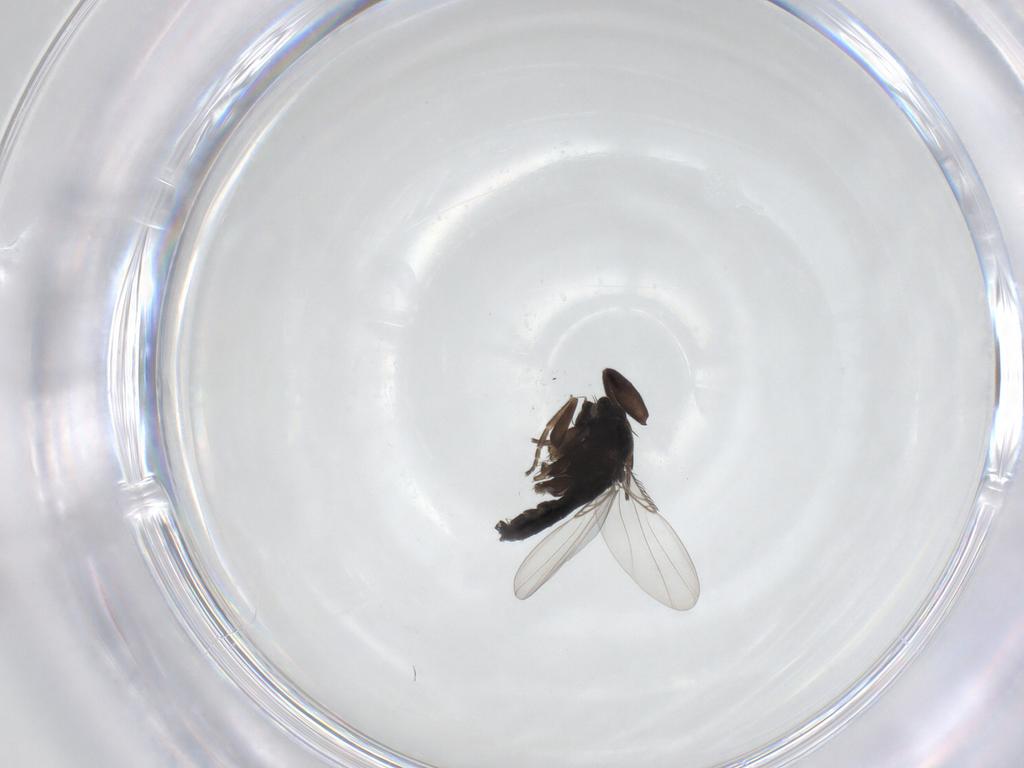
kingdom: Animalia
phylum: Arthropoda
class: Insecta
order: Diptera
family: Phoridae
